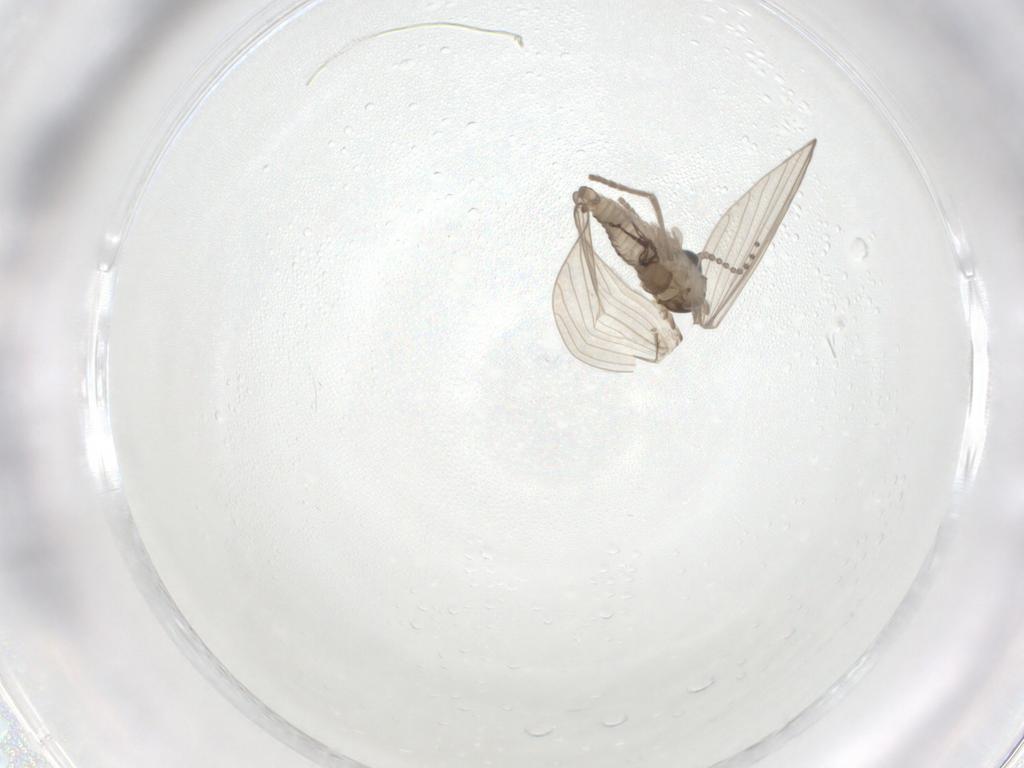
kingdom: Animalia
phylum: Arthropoda
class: Insecta
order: Diptera
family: Psychodidae
